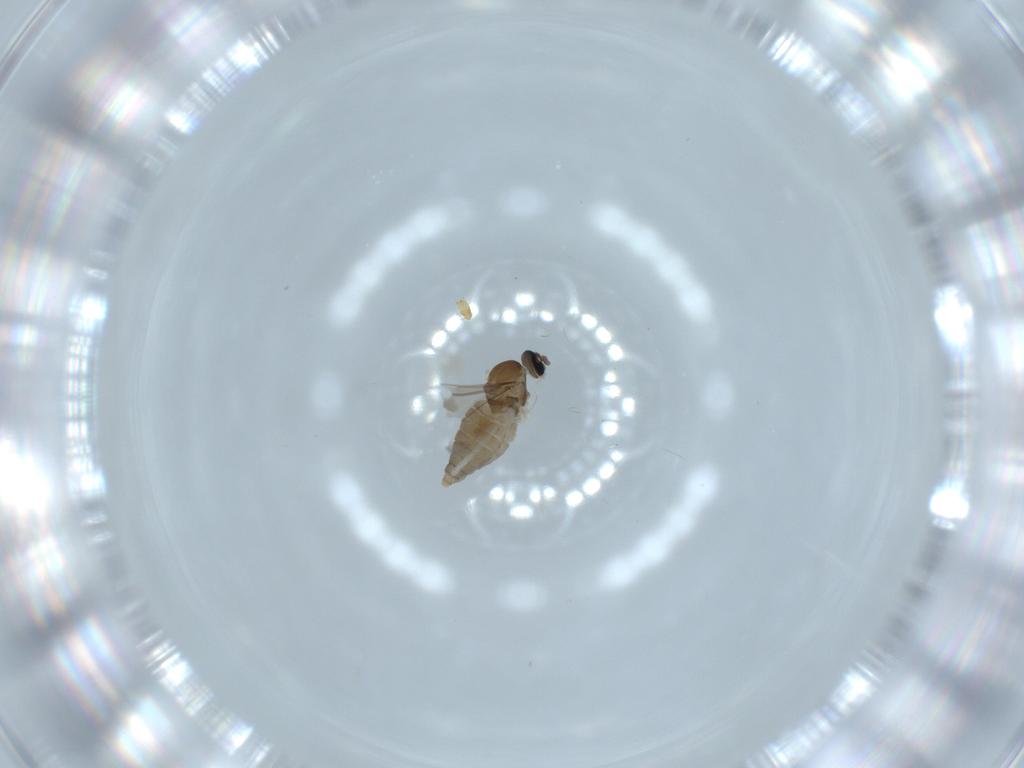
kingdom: Animalia
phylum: Arthropoda
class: Insecta
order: Diptera
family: Cecidomyiidae
